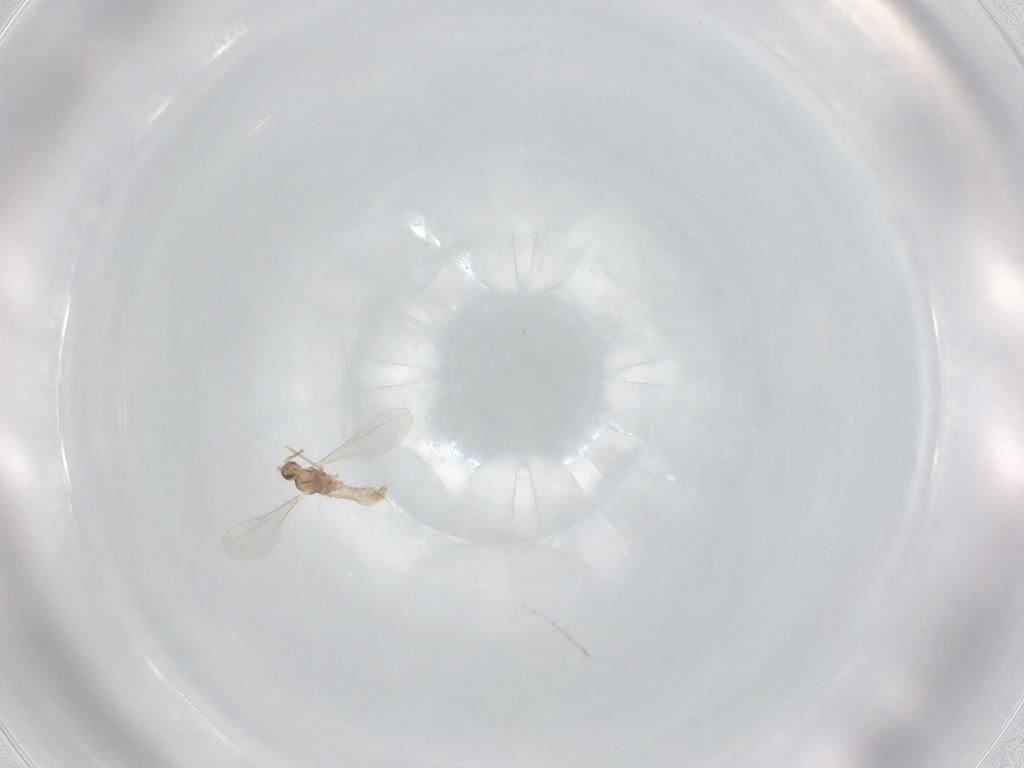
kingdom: Animalia
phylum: Arthropoda
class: Insecta
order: Diptera
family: Cecidomyiidae
